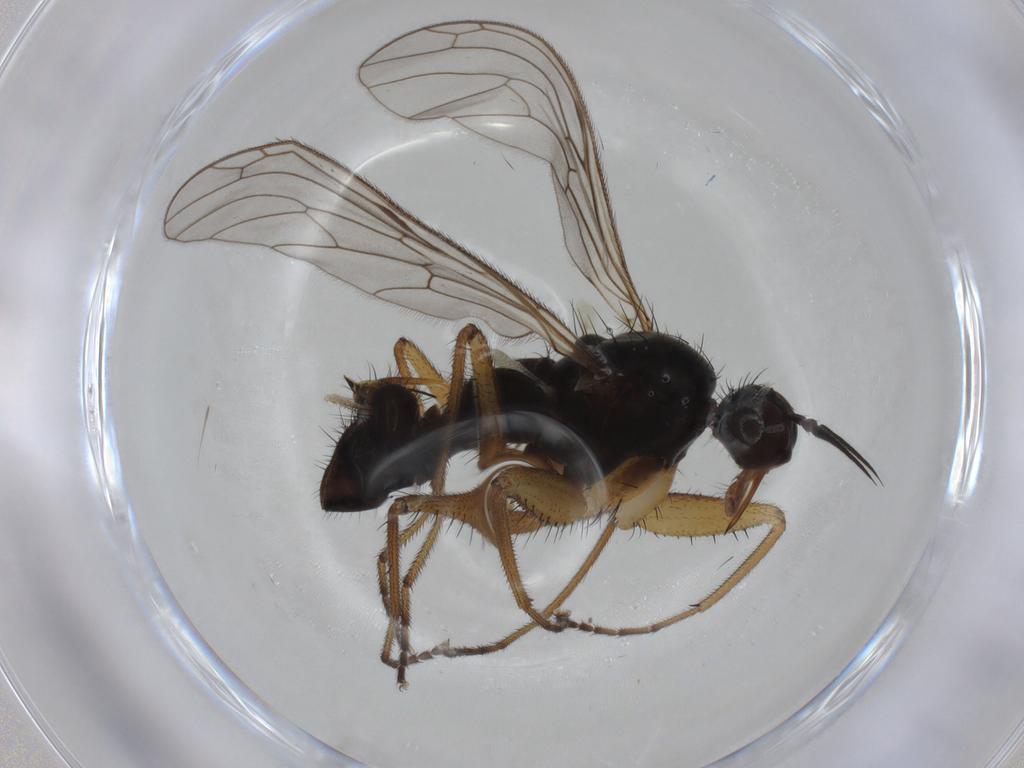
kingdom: Animalia
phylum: Arthropoda
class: Insecta
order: Diptera
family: Empididae
